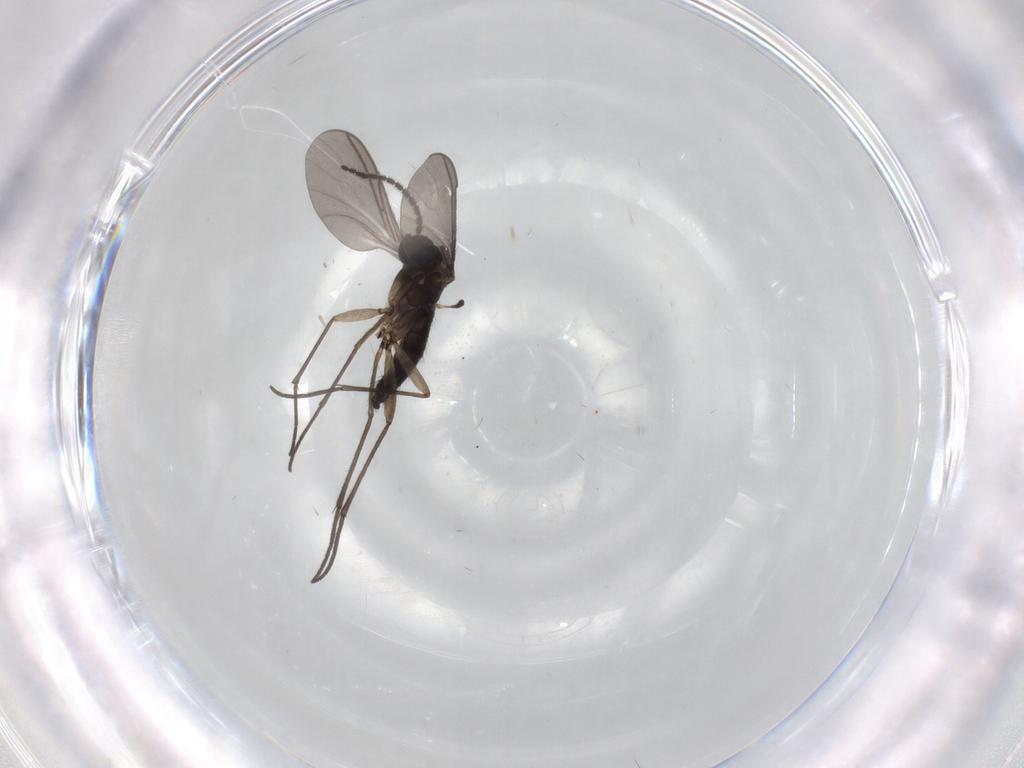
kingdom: Animalia
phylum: Arthropoda
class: Insecta
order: Diptera
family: Sciaridae
